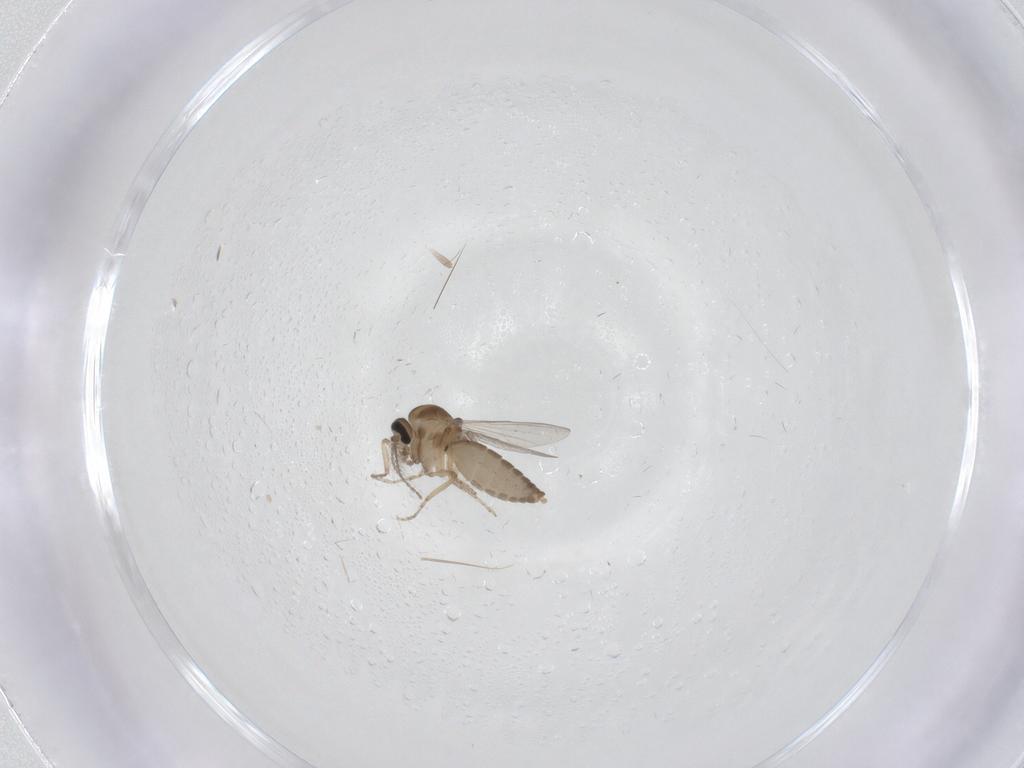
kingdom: Animalia
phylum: Arthropoda
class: Insecta
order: Diptera
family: Ceratopogonidae
